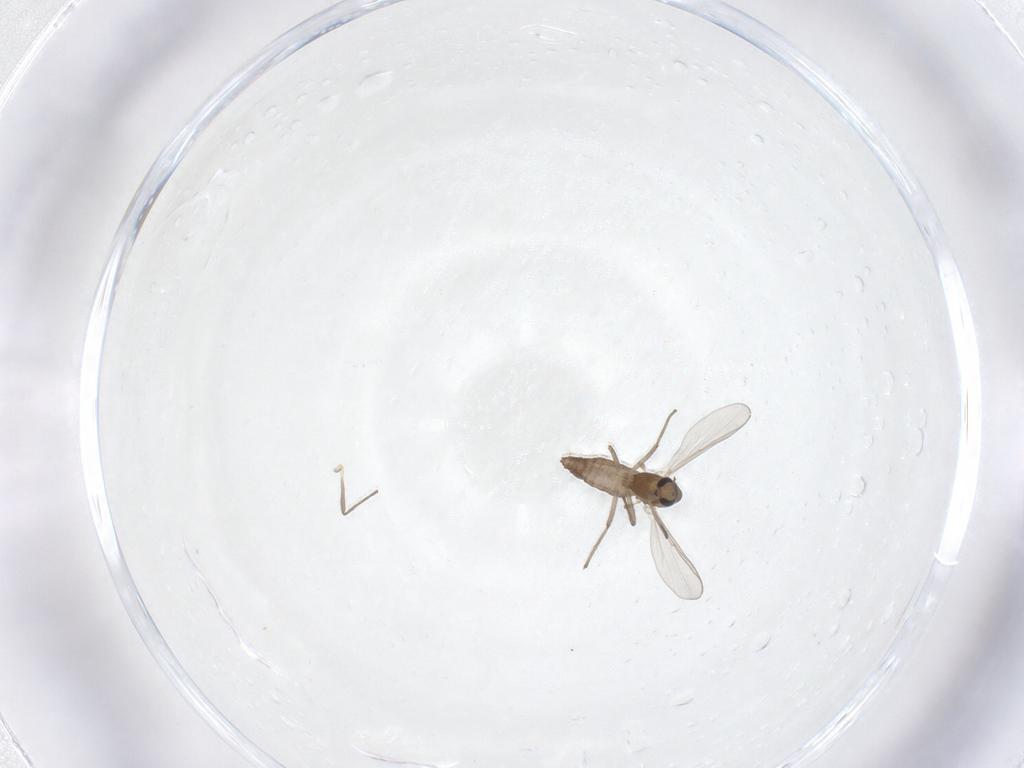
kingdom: Animalia
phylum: Arthropoda
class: Insecta
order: Diptera
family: Chironomidae
